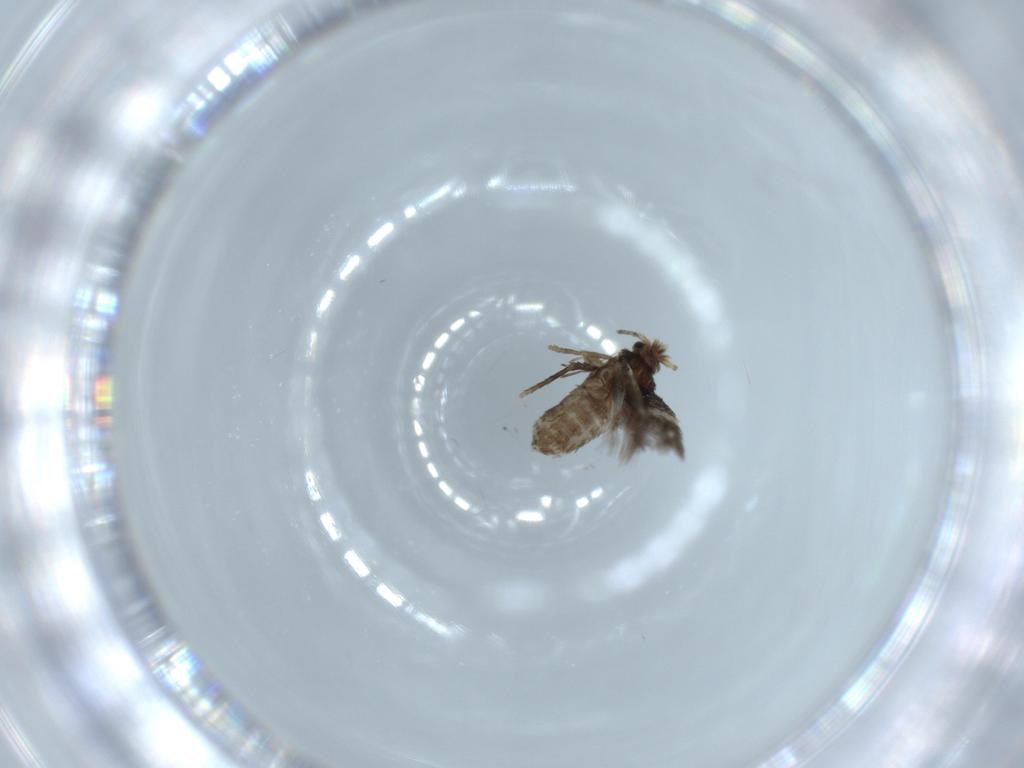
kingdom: Animalia
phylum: Arthropoda
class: Insecta
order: Lepidoptera
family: Nepticulidae
